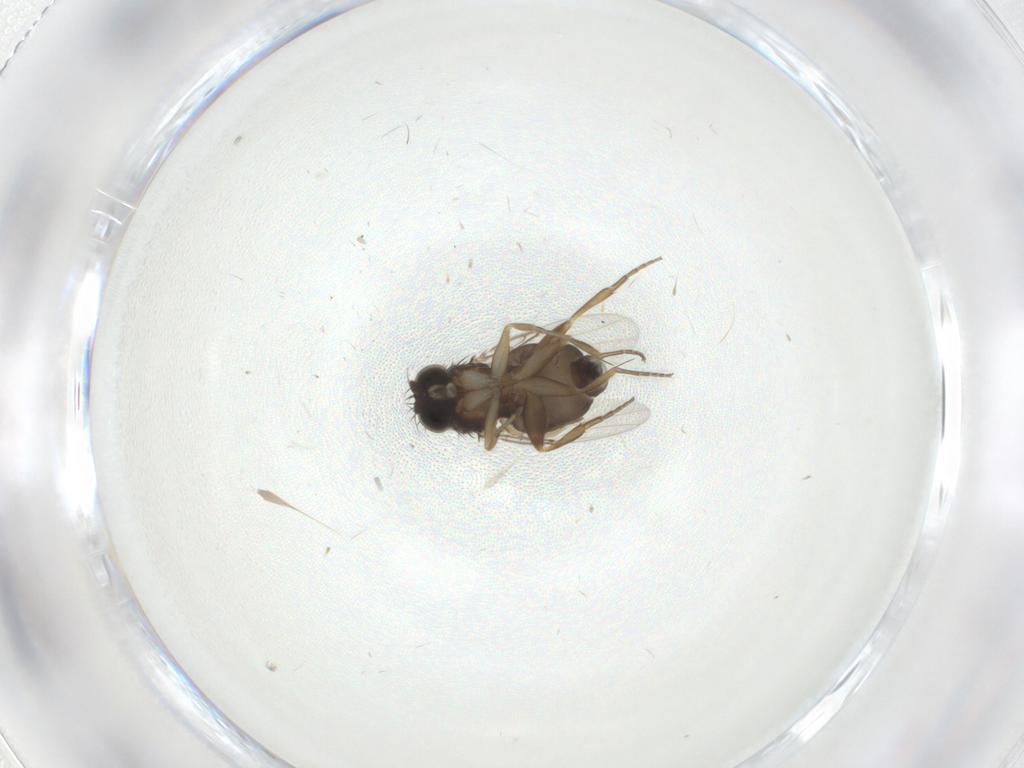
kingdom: Animalia
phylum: Arthropoda
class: Insecta
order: Diptera
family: Psychodidae
